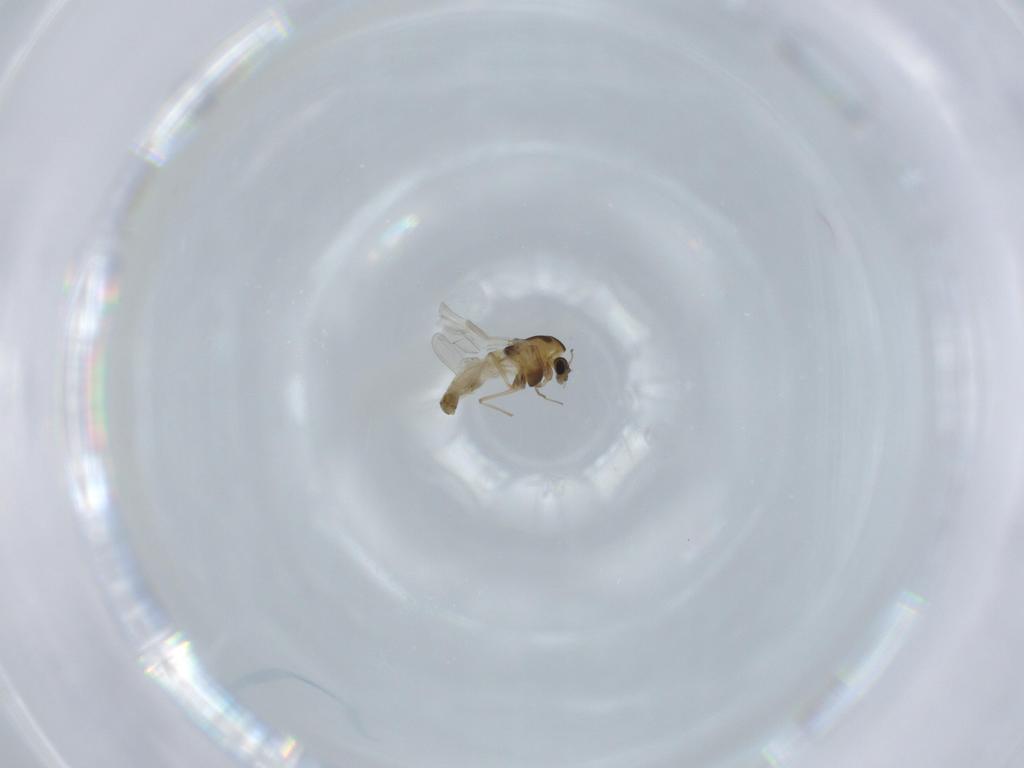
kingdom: Animalia
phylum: Arthropoda
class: Insecta
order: Diptera
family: Chironomidae
